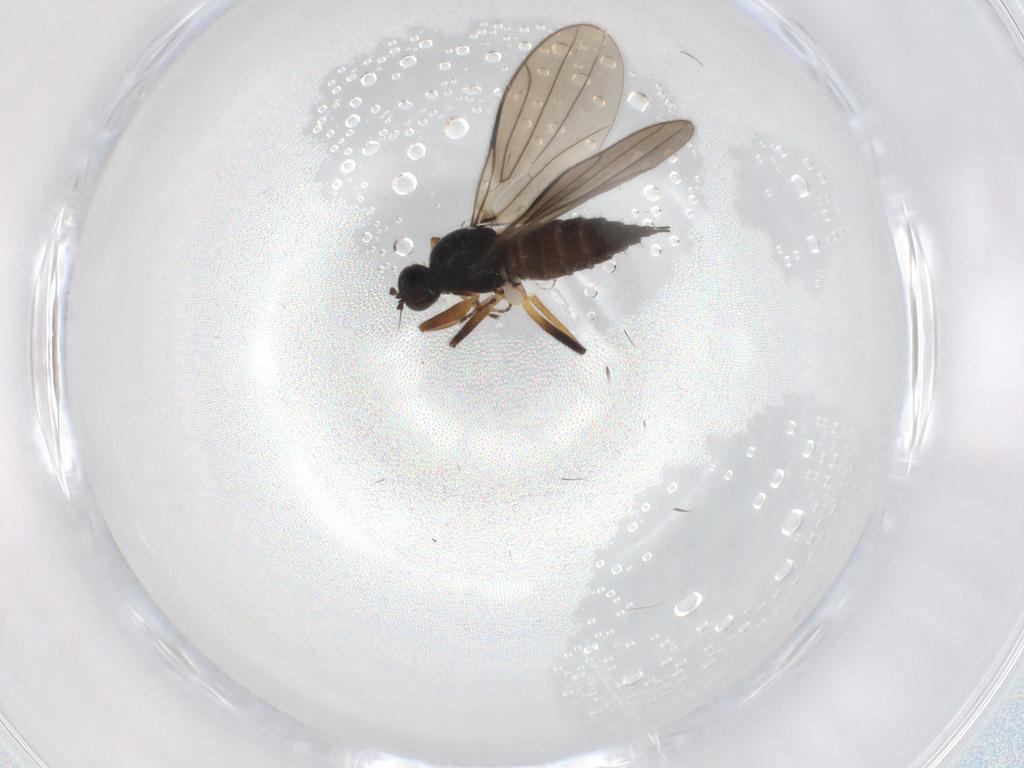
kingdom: Animalia
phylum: Arthropoda
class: Insecta
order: Diptera
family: Hybotidae
